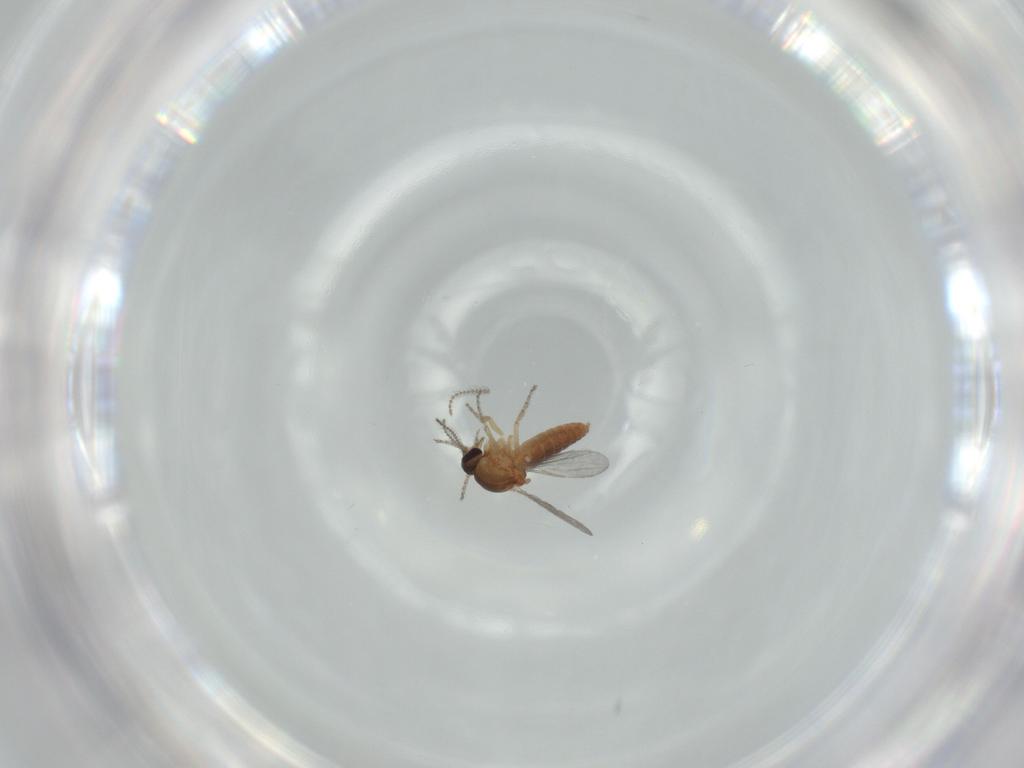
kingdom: Animalia
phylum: Arthropoda
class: Insecta
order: Diptera
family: Ceratopogonidae
